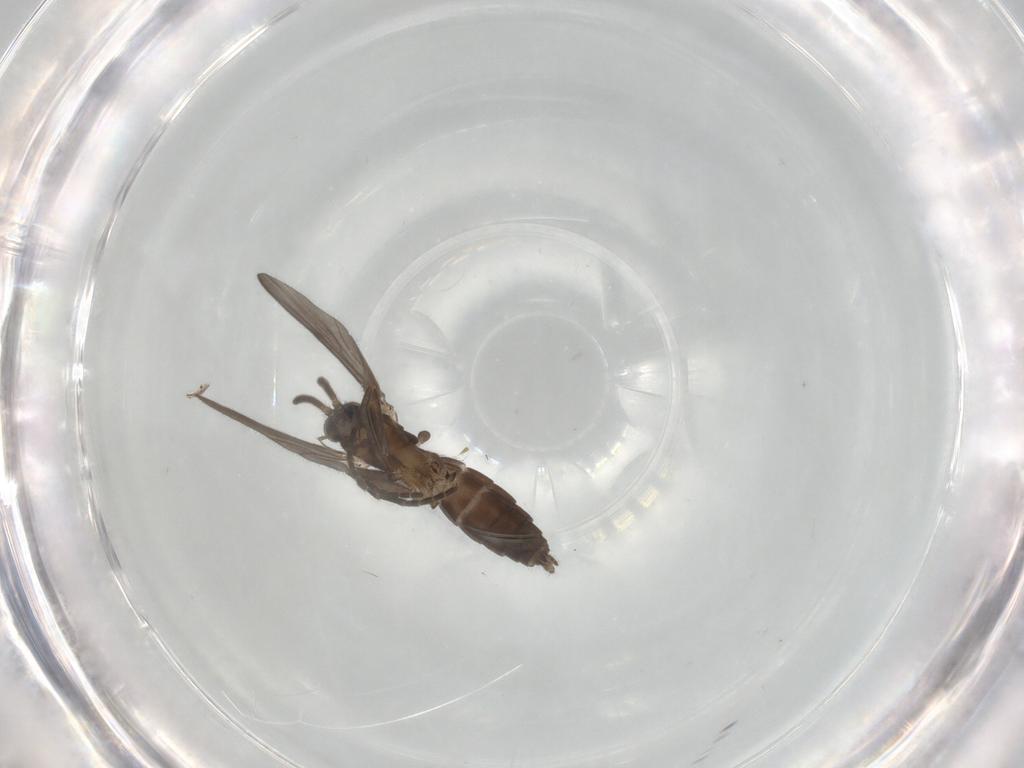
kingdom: Animalia
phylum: Arthropoda
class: Insecta
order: Diptera
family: Mycetophilidae
